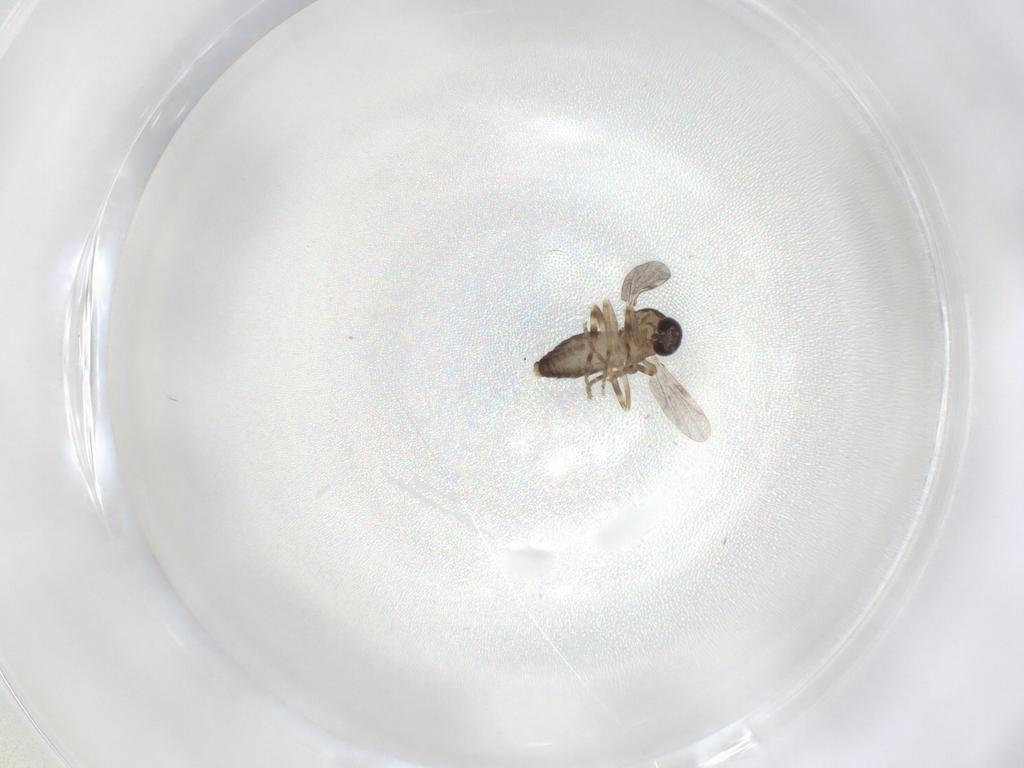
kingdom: Animalia
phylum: Arthropoda
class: Insecta
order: Diptera
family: Ceratopogonidae
